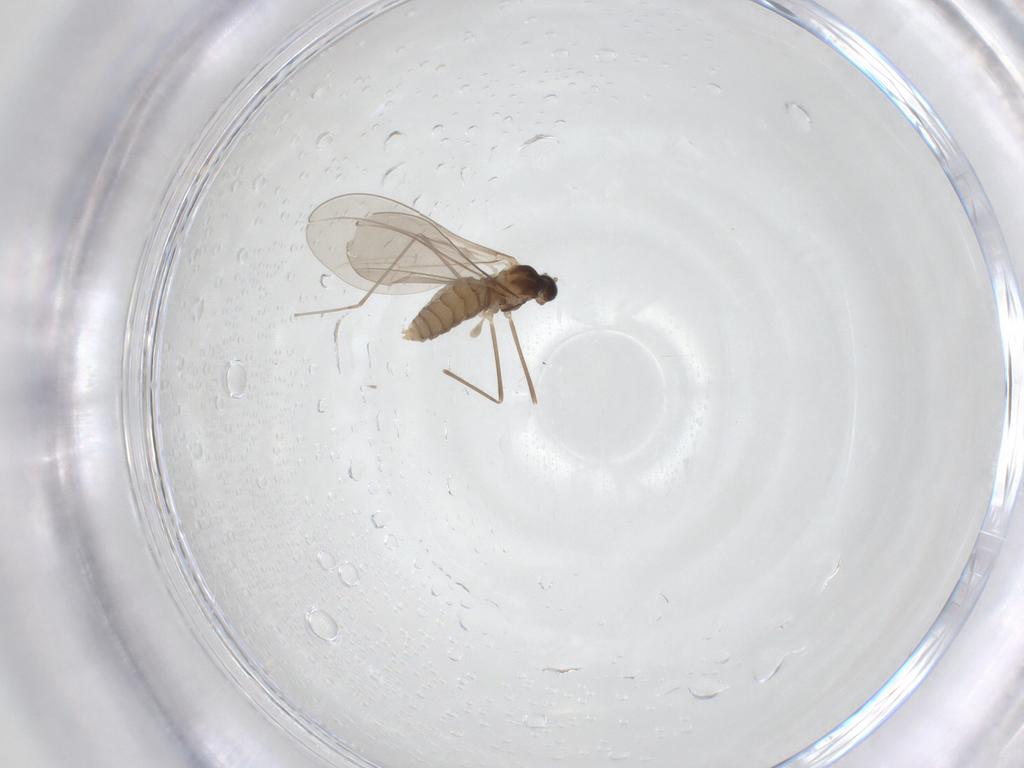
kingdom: Animalia
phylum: Arthropoda
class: Insecta
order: Diptera
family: Cecidomyiidae
